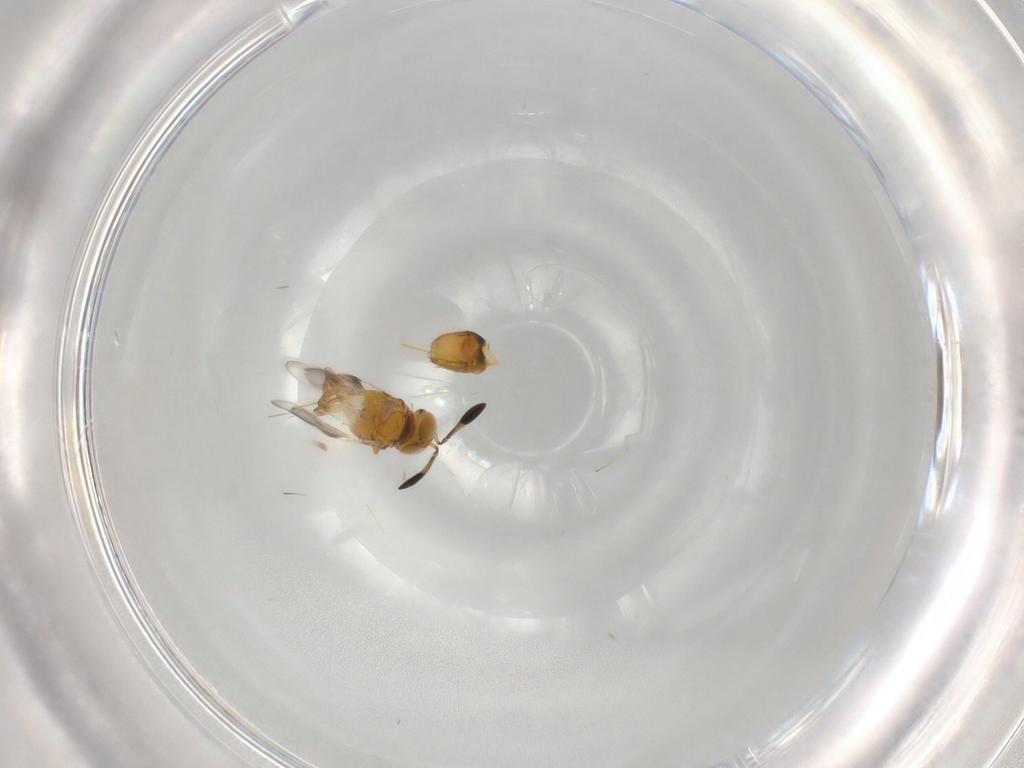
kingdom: Animalia
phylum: Arthropoda
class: Insecta
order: Hymenoptera
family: Encyrtidae
